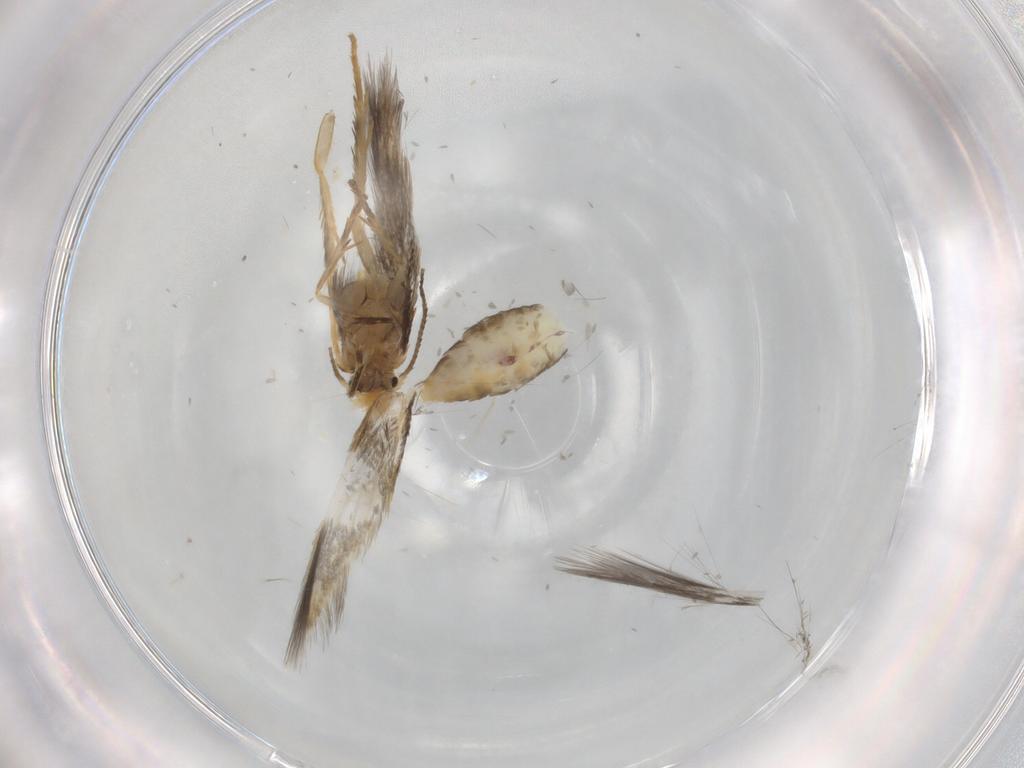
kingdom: Animalia
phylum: Arthropoda
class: Insecta
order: Lepidoptera
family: Nepticulidae
